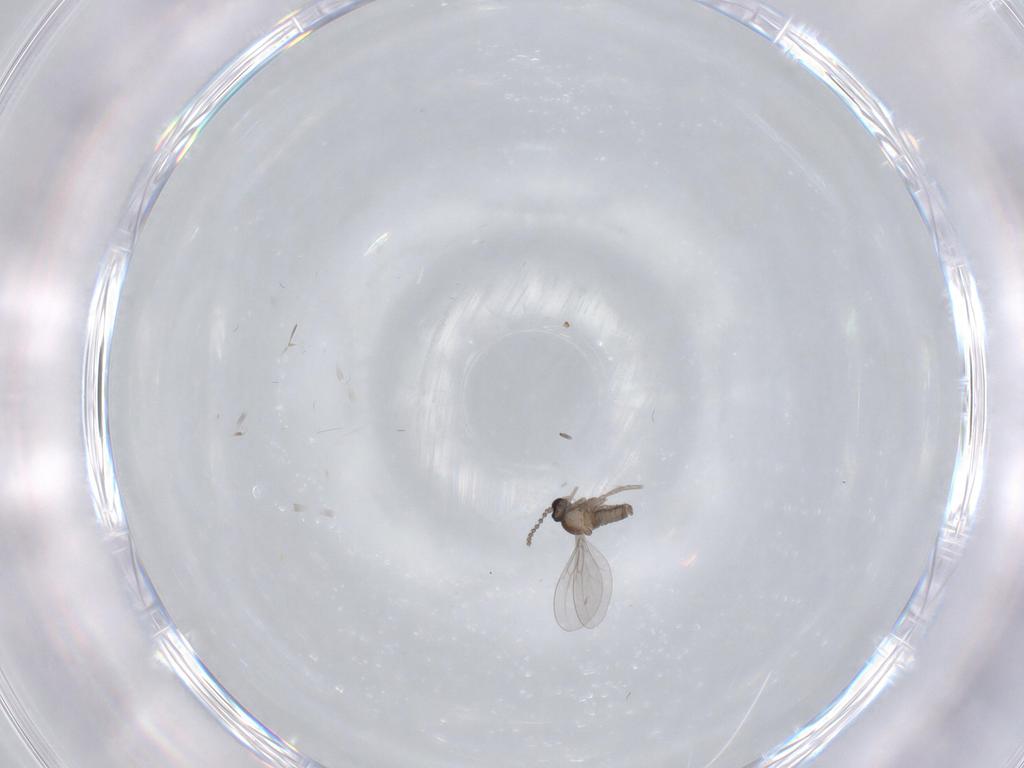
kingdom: Animalia
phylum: Arthropoda
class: Insecta
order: Diptera
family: Cecidomyiidae
